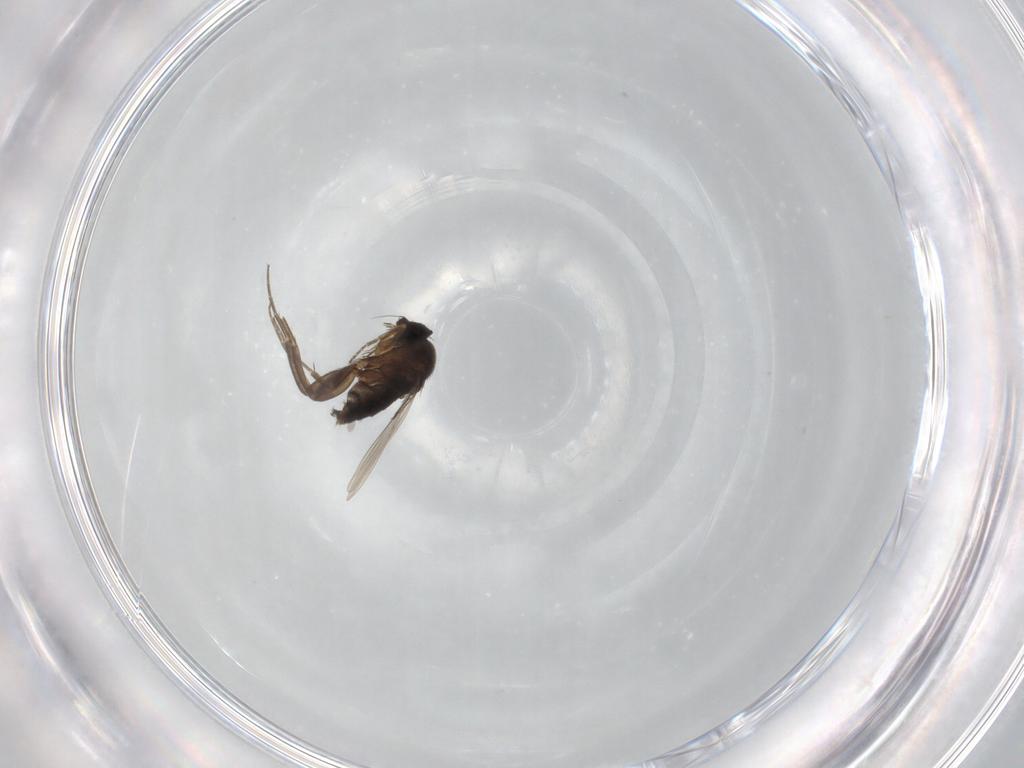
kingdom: Animalia
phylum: Arthropoda
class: Insecta
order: Diptera
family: Phoridae
